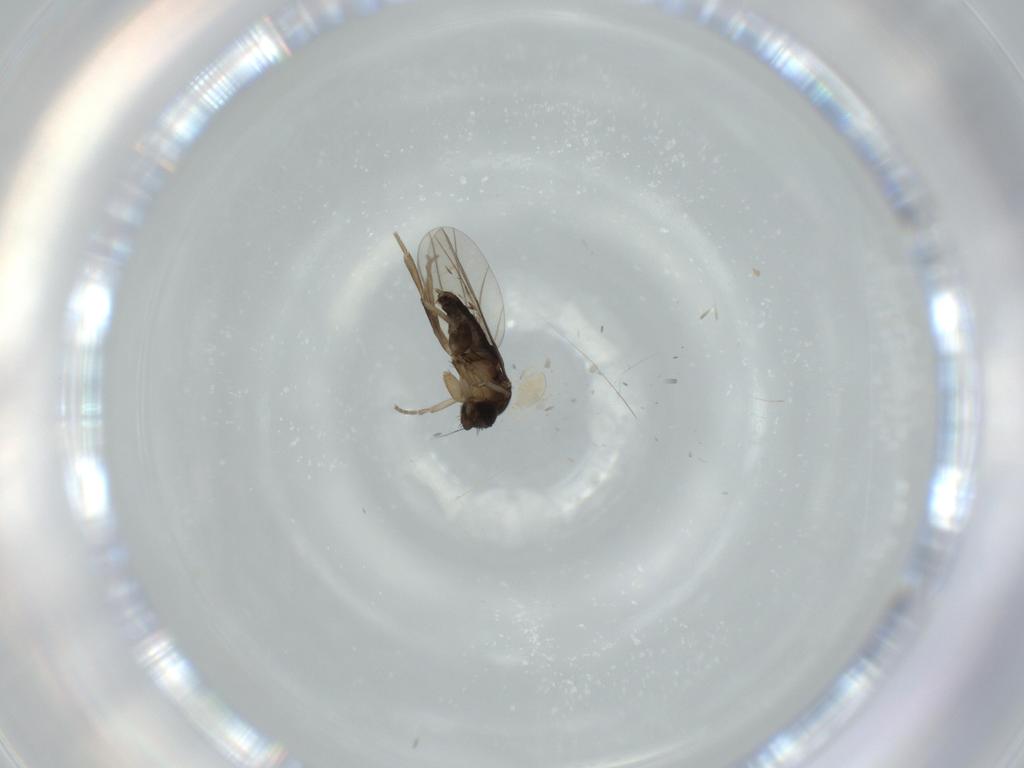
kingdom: Animalia
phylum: Arthropoda
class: Insecta
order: Diptera
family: Phoridae
